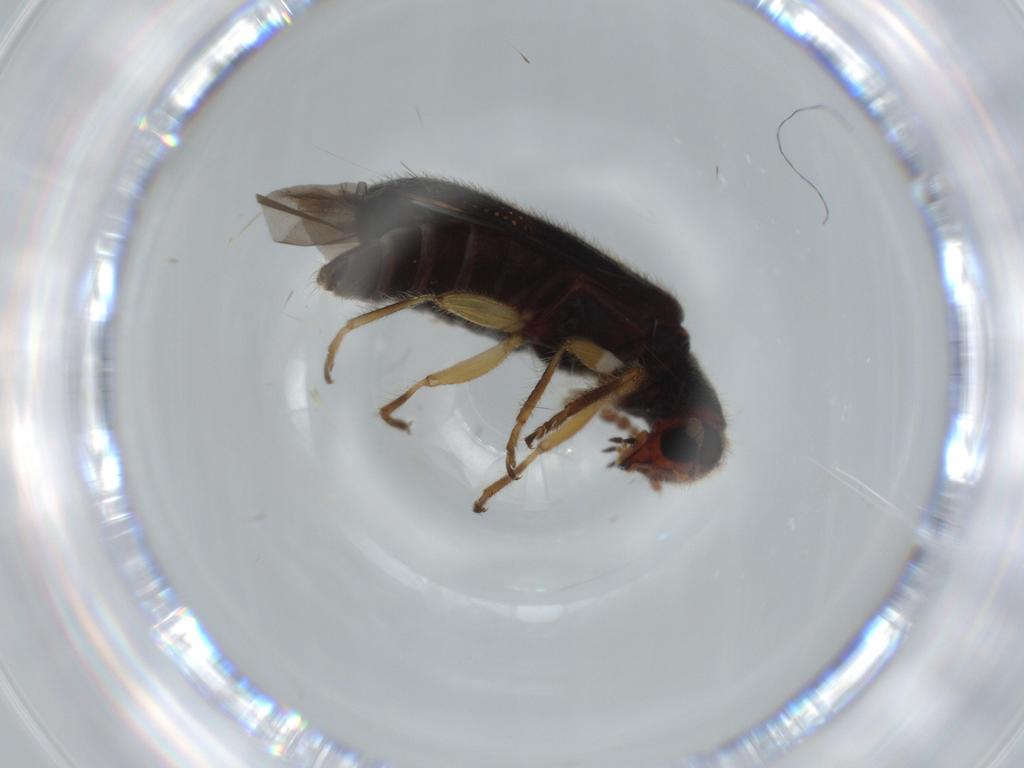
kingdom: Animalia
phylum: Arthropoda
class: Insecta
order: Coleoptera
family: Throscidae
